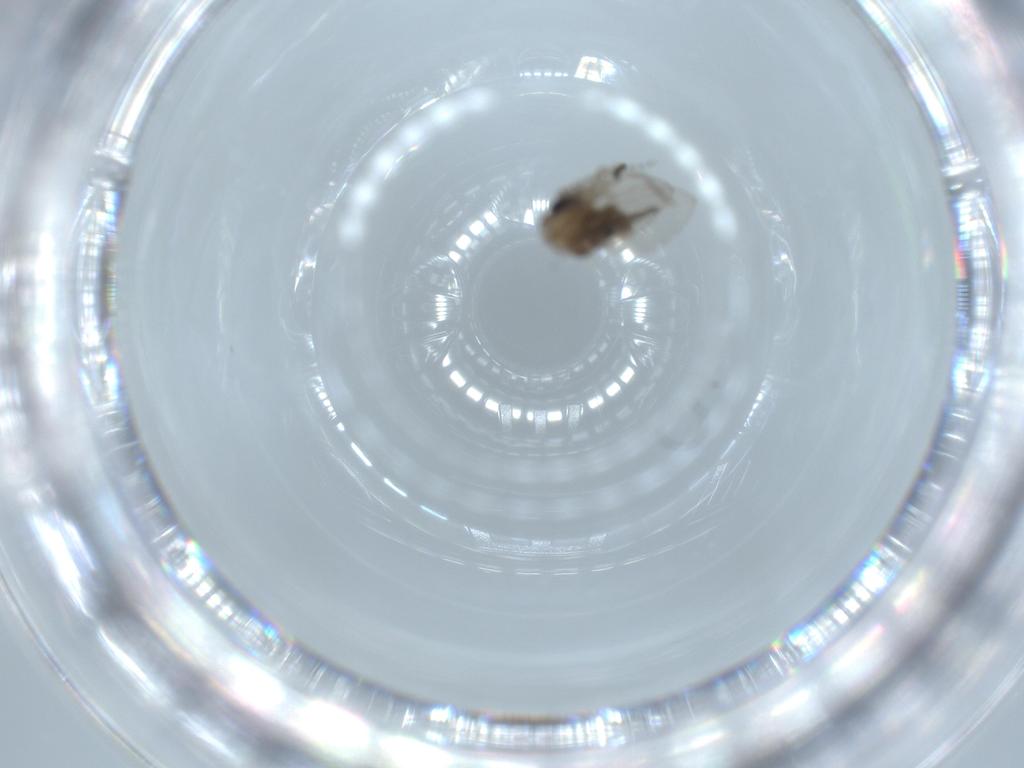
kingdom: Animalia
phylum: Arthropoda
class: Insecta
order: Diptera
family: Psychodidae
